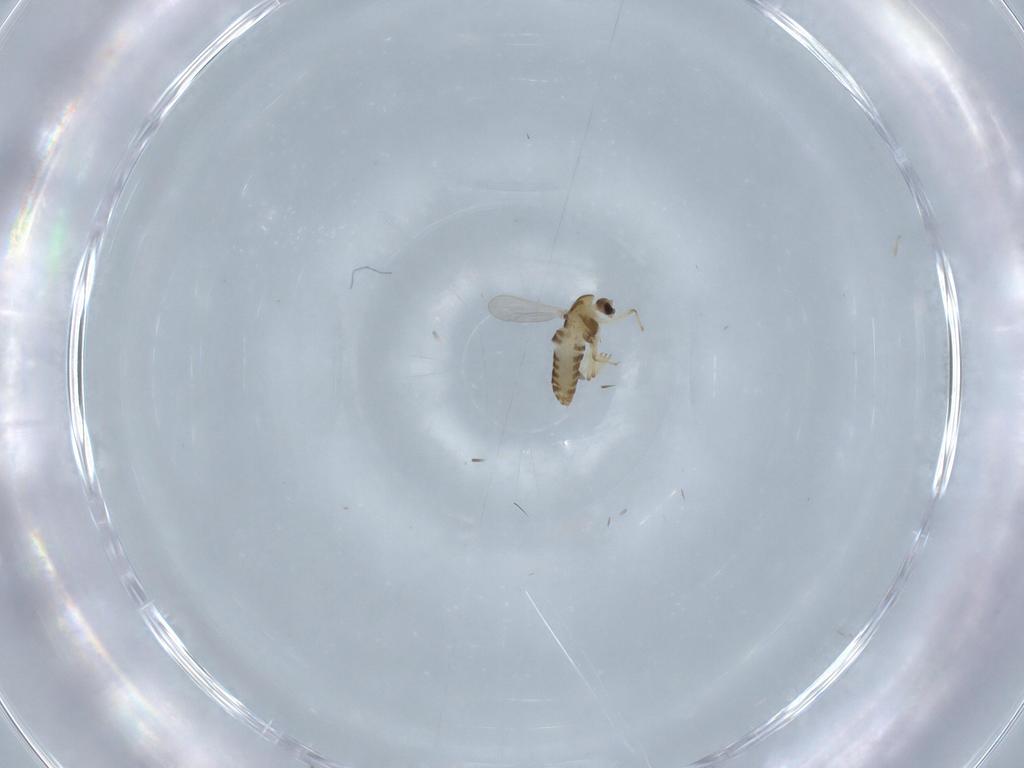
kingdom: Animalia
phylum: Arthropoda
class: Insecta
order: Diptera
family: Chironomidae
